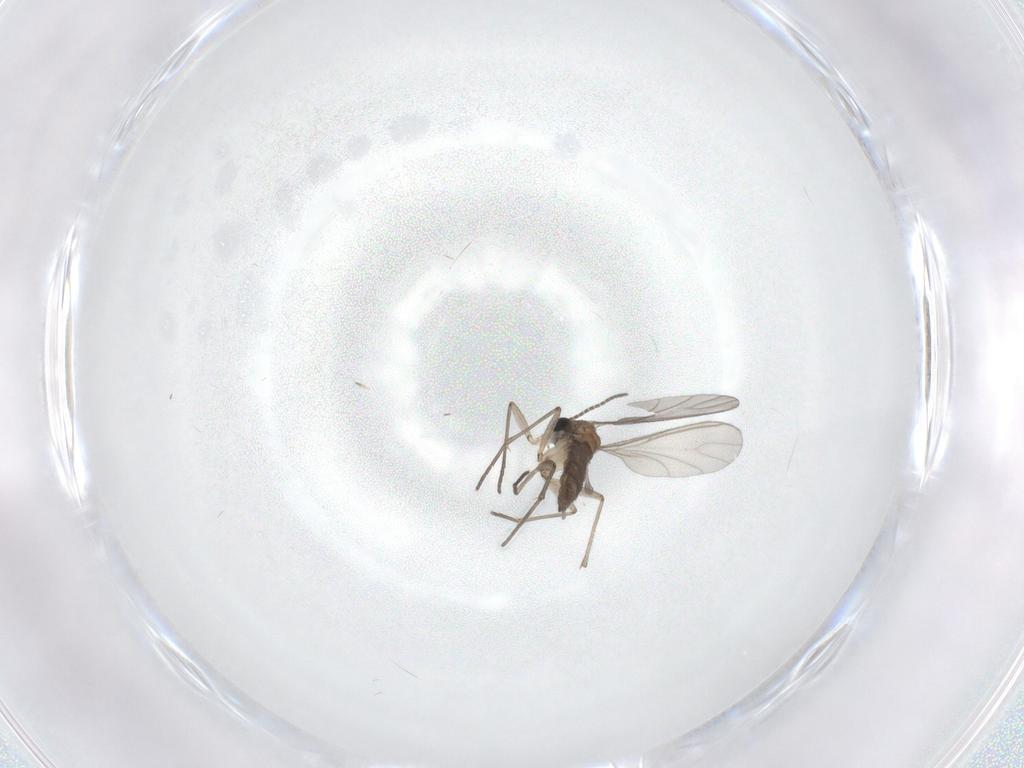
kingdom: Animalia
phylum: Arthropoda
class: Insecta
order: Diptera
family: Sciaridae
